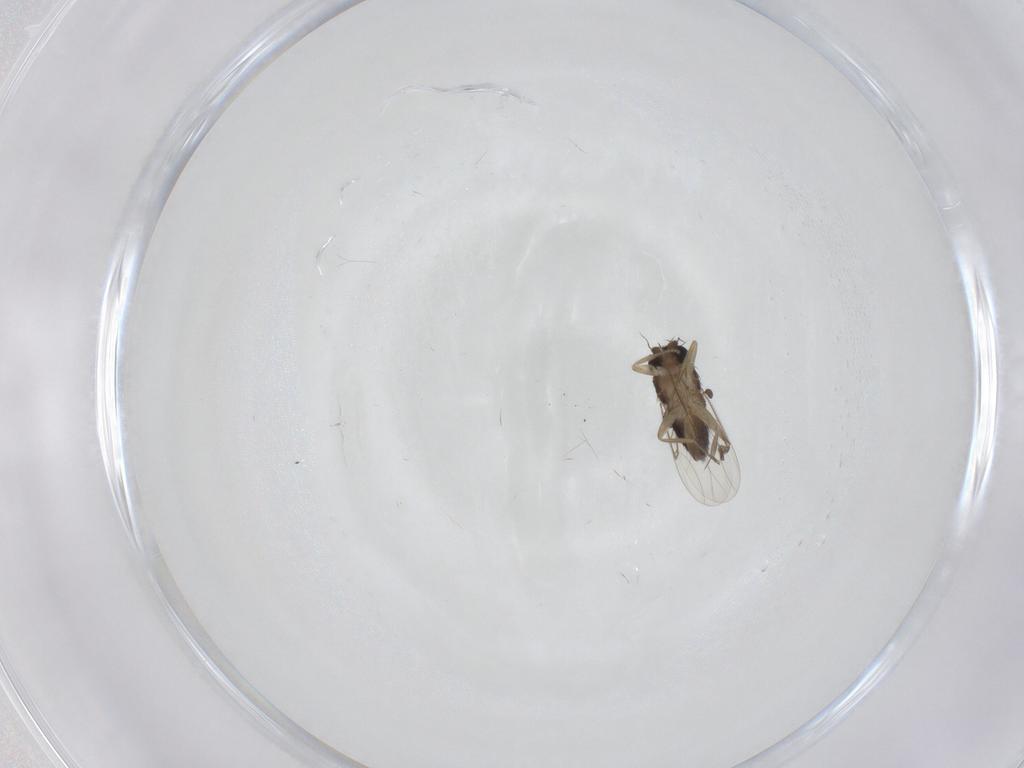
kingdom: Animalia
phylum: Arthropoda
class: Insecta
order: Diptera
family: Phoridae
